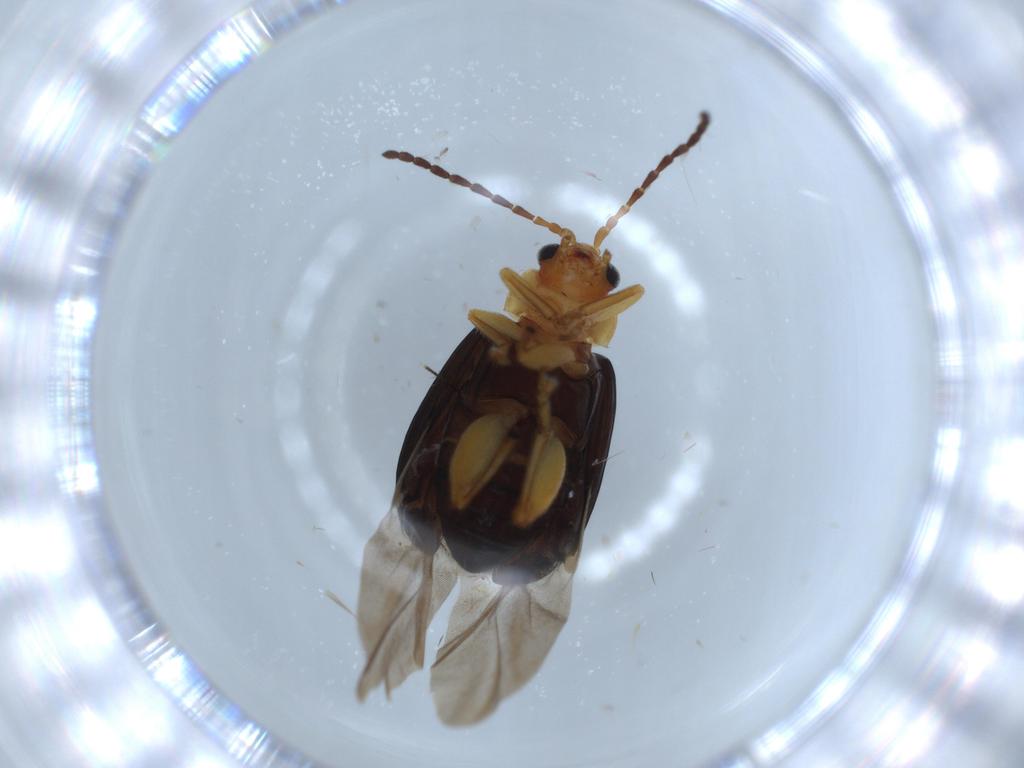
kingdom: Animalia
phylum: Arthropoda
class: Insecta
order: Coleoptera
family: Chrysomelidae
